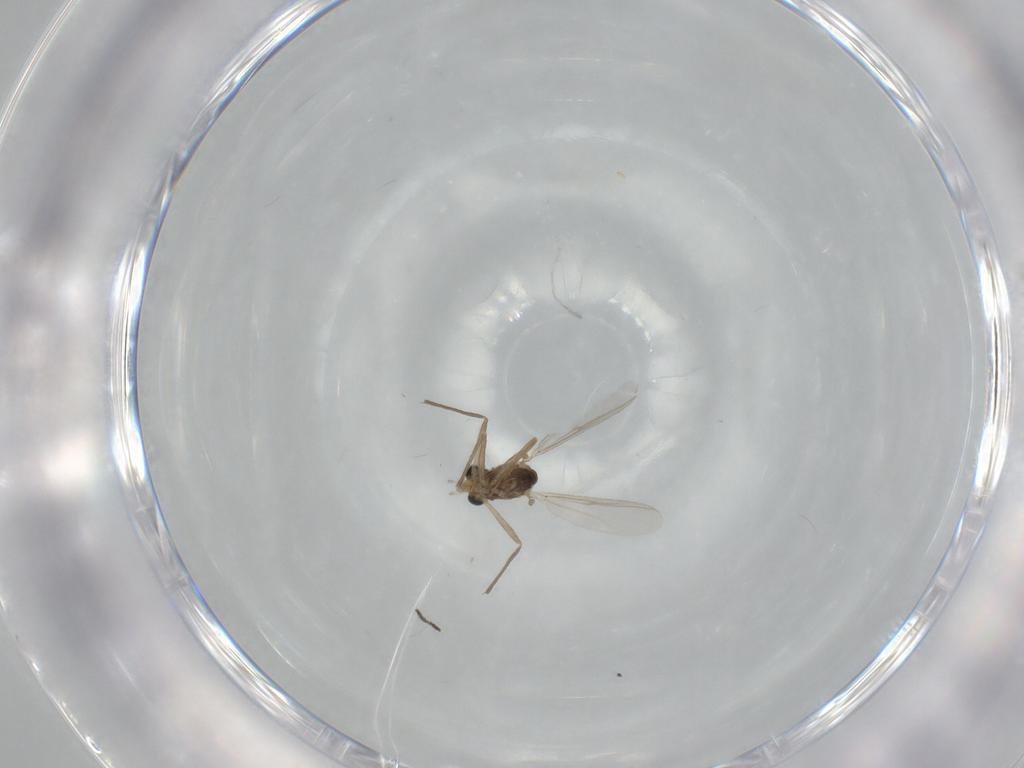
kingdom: Animalia
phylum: Arthropoda
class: Insecta
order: Diptera
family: Chironomidae
